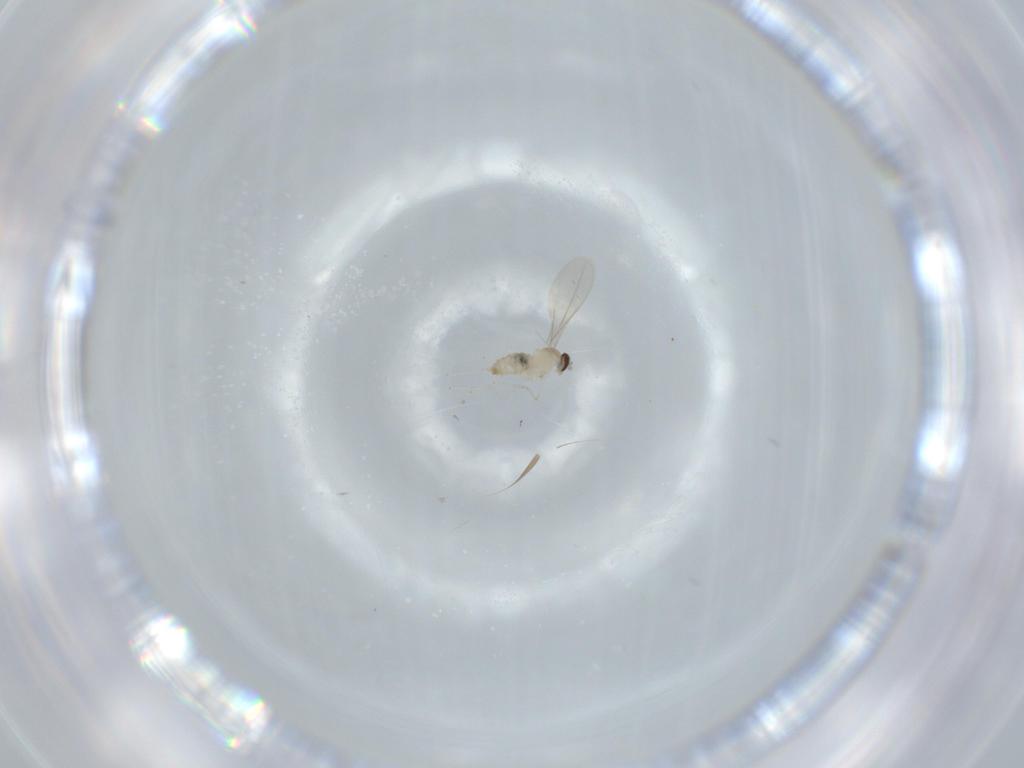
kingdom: Animalia
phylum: Arthropoda
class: Insecta
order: Diptera
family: Cecidomyiidae
